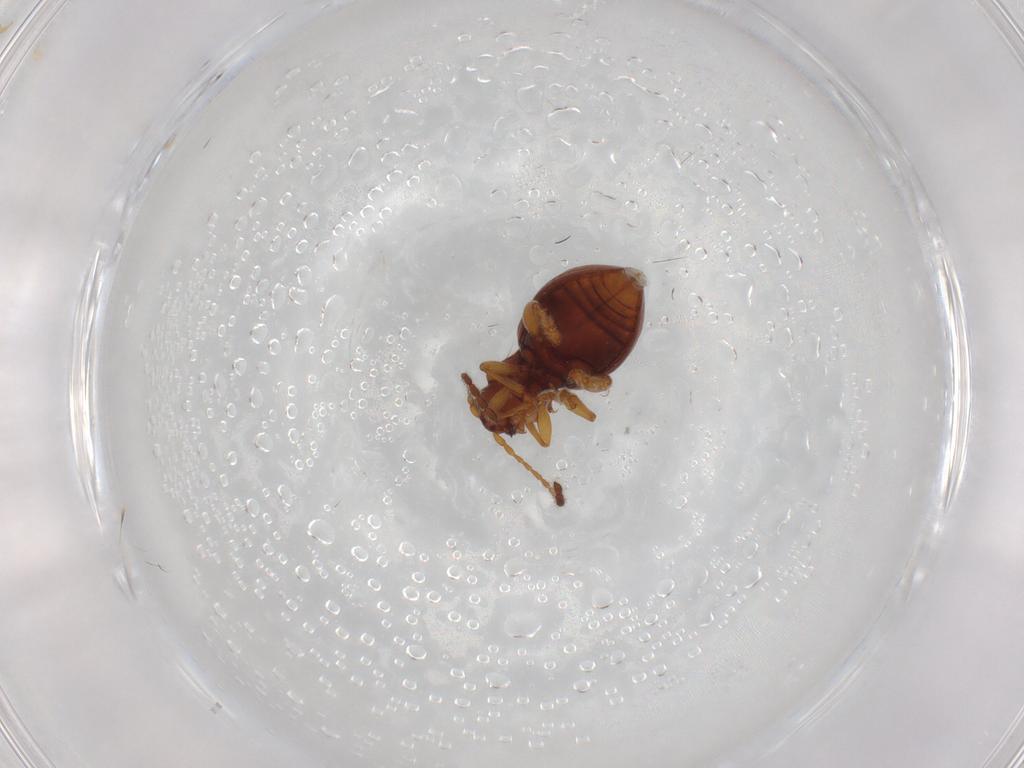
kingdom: Animalia
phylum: Arthropoda
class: Insecta
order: Coleoptera
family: Chrysomelidae
